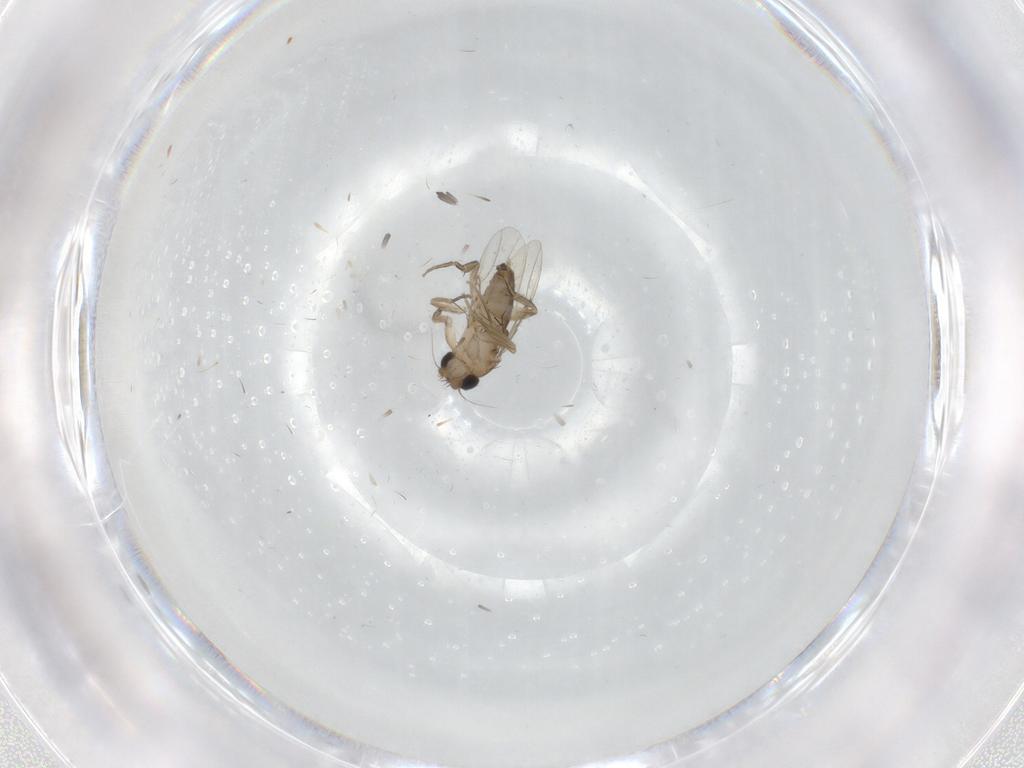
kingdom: Animalia
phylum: Arthropoda
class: Insecta
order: Diptera
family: Phoridae
